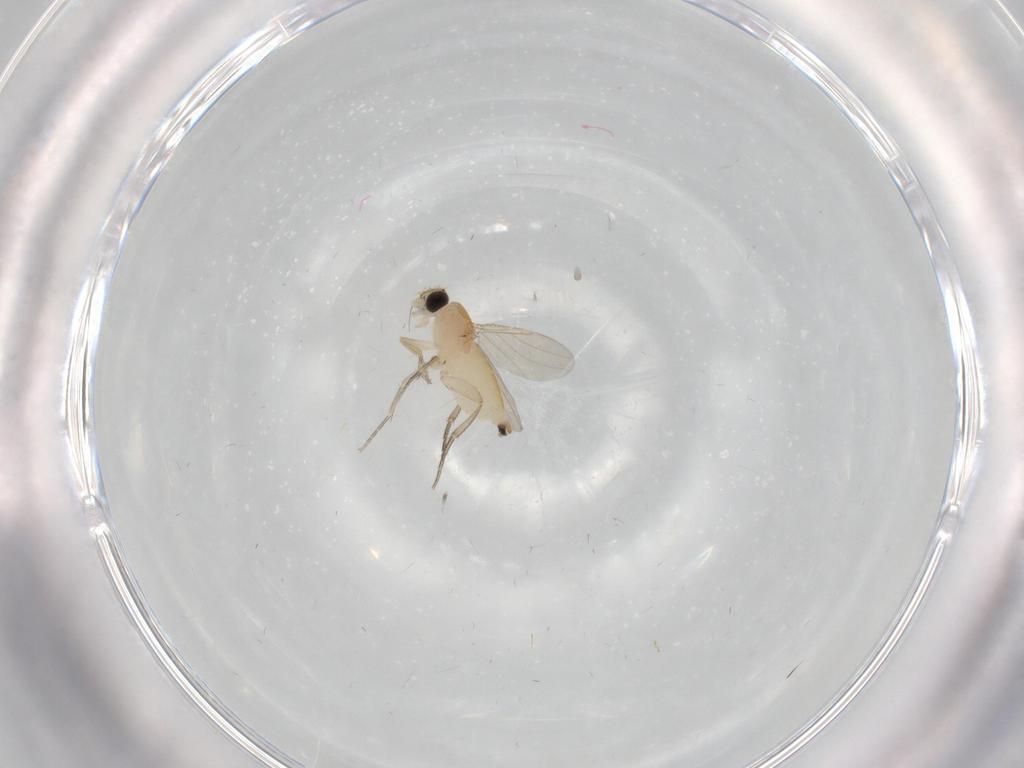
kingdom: Animalia
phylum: Arthropoda
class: Insecta
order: Diptera
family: Dolichopodidae
